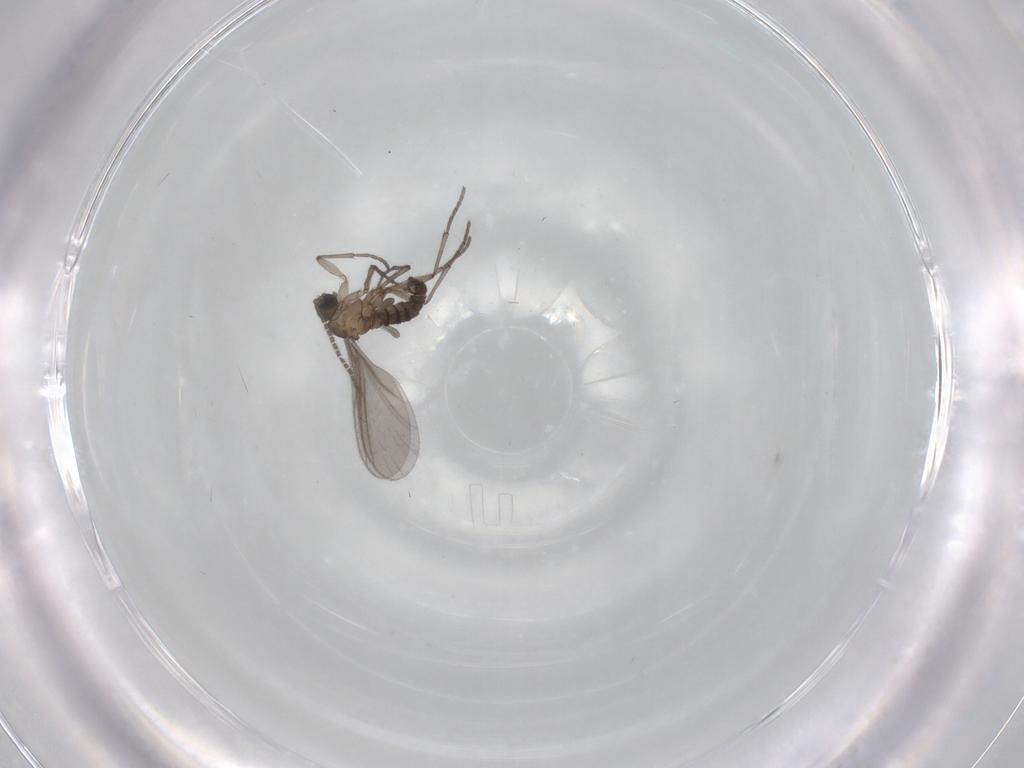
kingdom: Animalia
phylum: Arthropoda
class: Insecta
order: Diptera
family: Sciaridae
